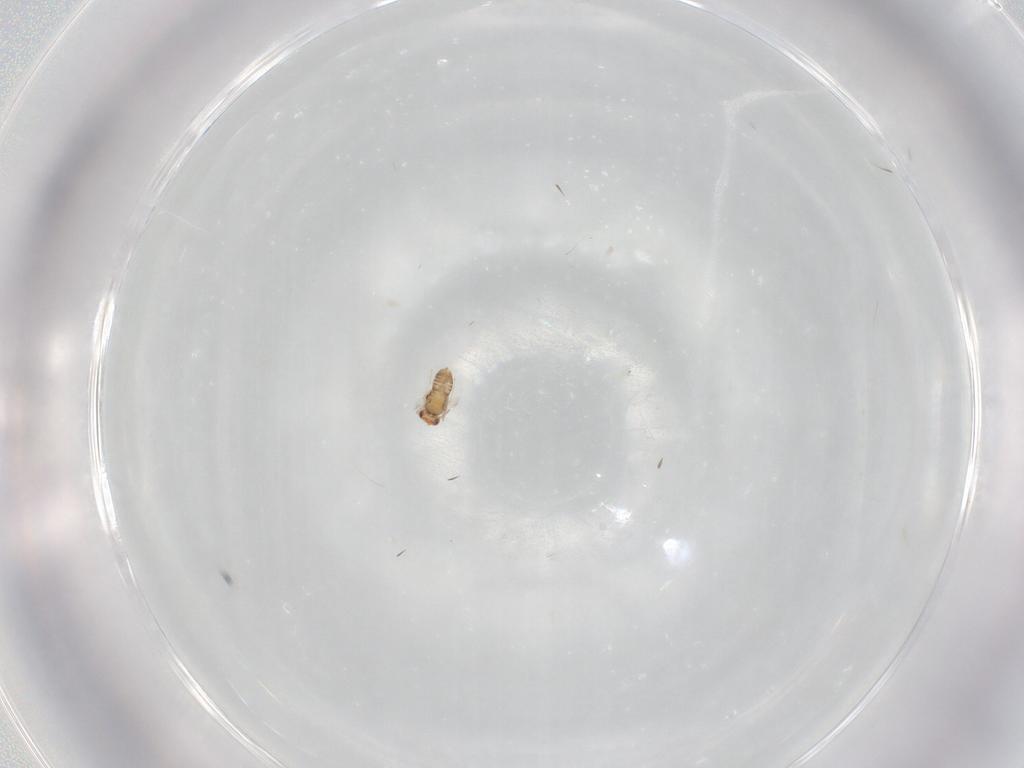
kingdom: Animalia
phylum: Arthropoda
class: Insecta
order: Hymenoptera
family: Aphelinidae
